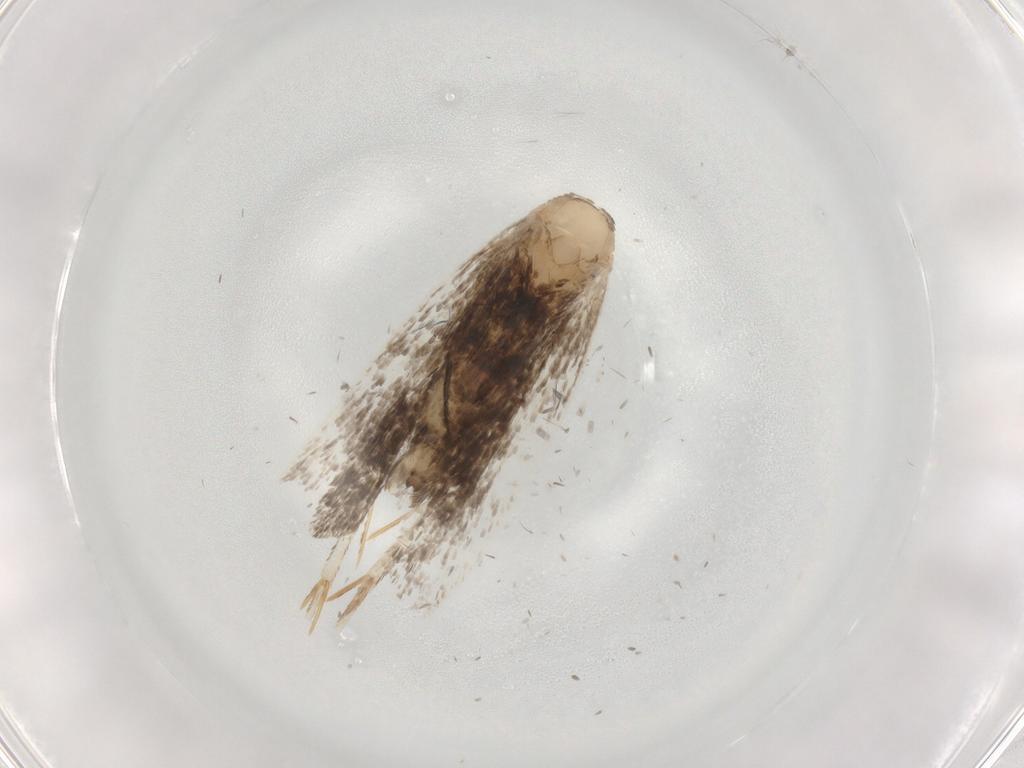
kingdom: Animalia
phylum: Arthropoda
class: Insecta
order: Lepidoptera
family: Gelechiidae
